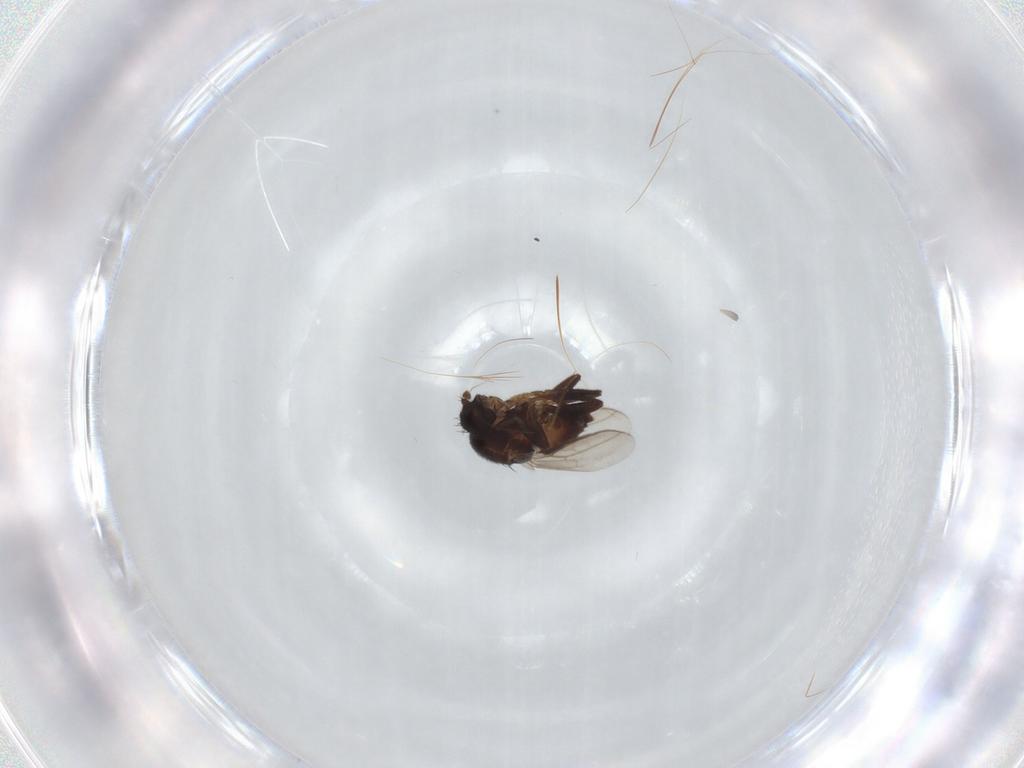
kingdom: Animalia
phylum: Arthropoda
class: Insecta
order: Diptera
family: Sphaeroceridae
